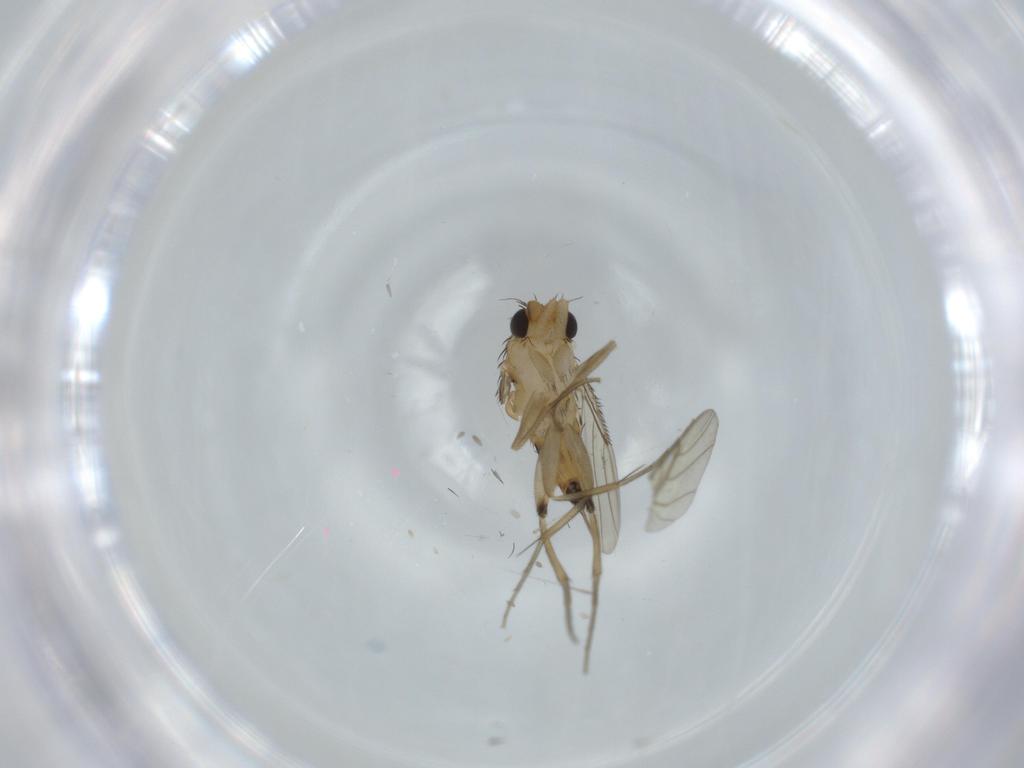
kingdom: Animalia
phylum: Arthropoda
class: Insecta
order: Diptera
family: Phoridae
